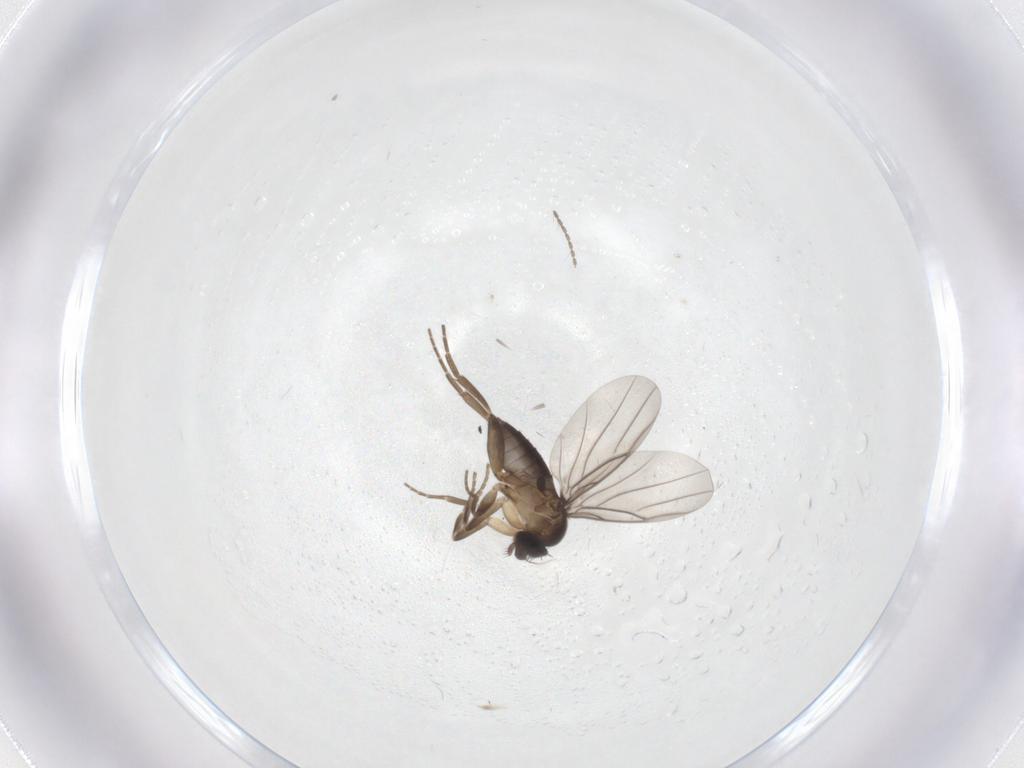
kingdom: Animalia
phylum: Arthropoda
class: Insecta
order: Diptera
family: Phoridae
